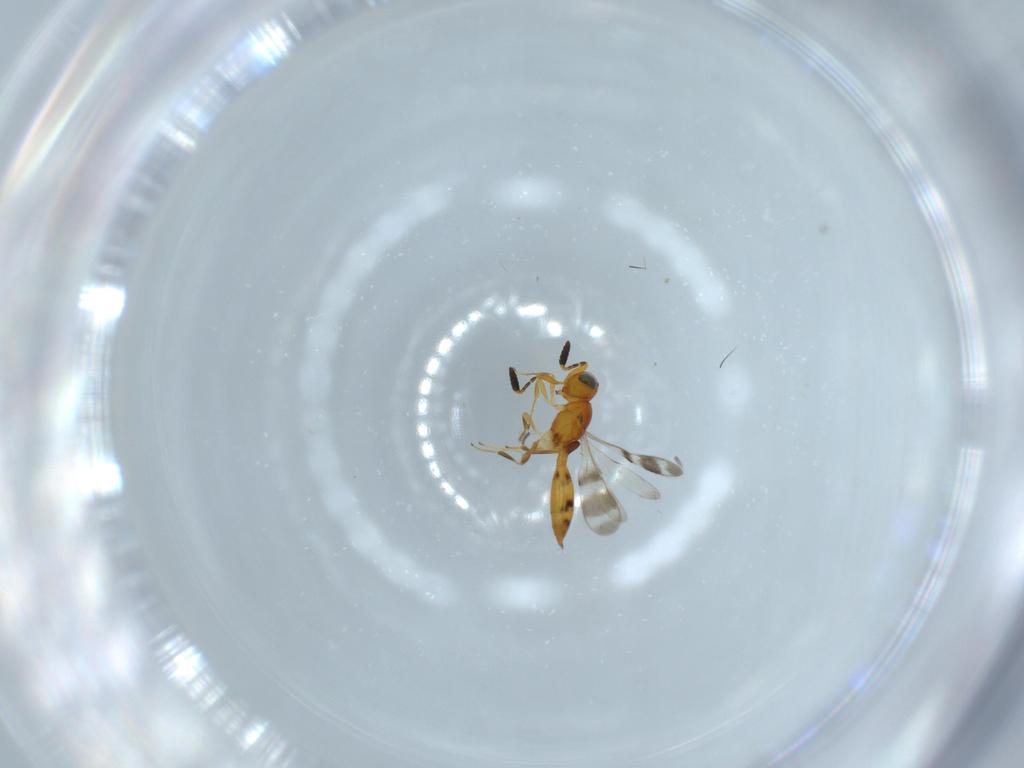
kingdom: Animalia
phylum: Arthropoda
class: Insecta
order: Hymenoptera
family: Scelionidae
